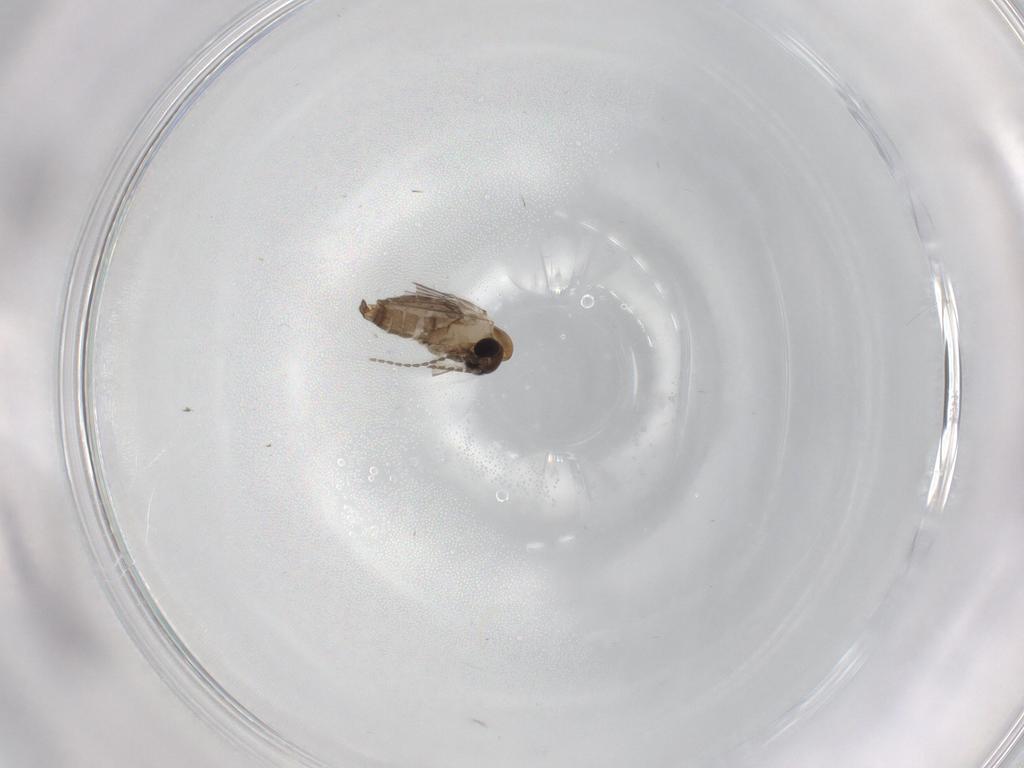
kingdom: Animalia
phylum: Arthropoda
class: Insecta
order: Diptera
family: Psychodidae
